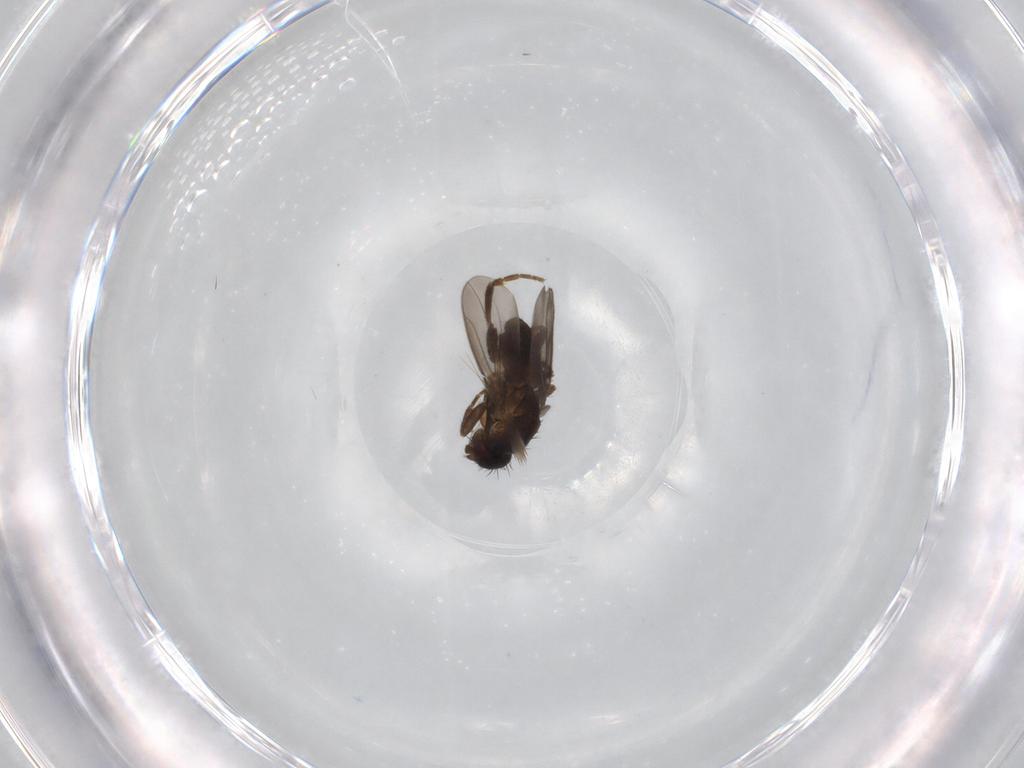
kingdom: Animalia
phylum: Arthropoda
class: Insecta
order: Diptera
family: Sphaeroceridae
